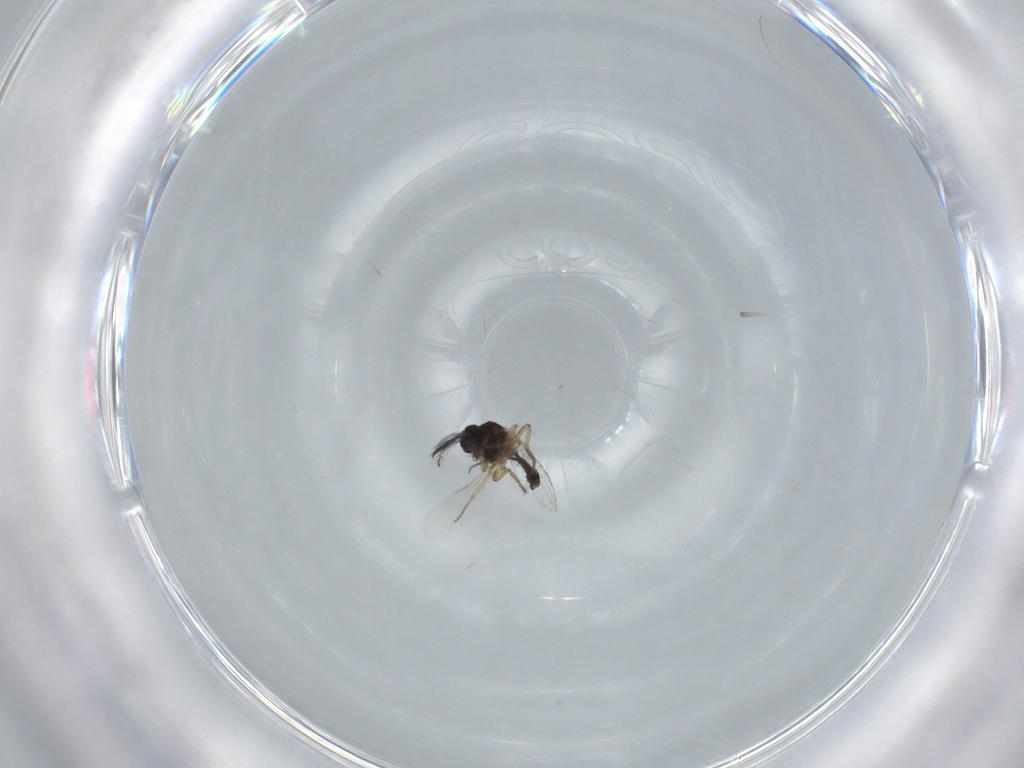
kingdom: Animalia
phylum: Arthropoda
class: Insecta
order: Diptera
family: Ceratopogonidae
